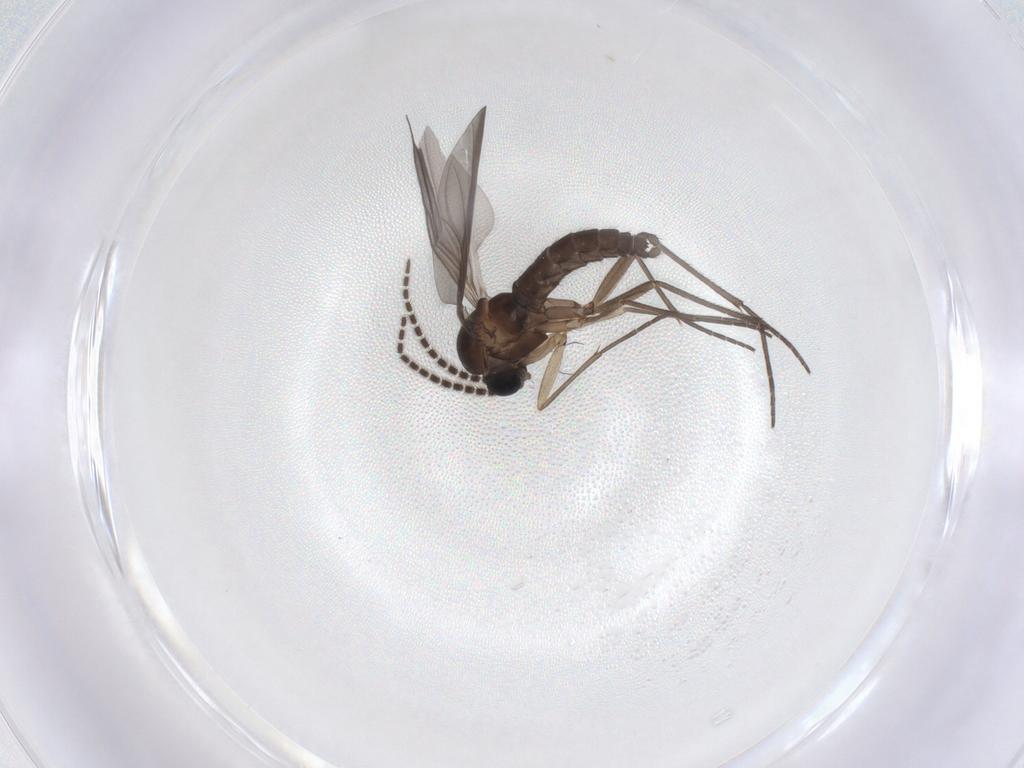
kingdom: Animalia
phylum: Arthropoda
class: Insecta
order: Diptera
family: Sciaridae
